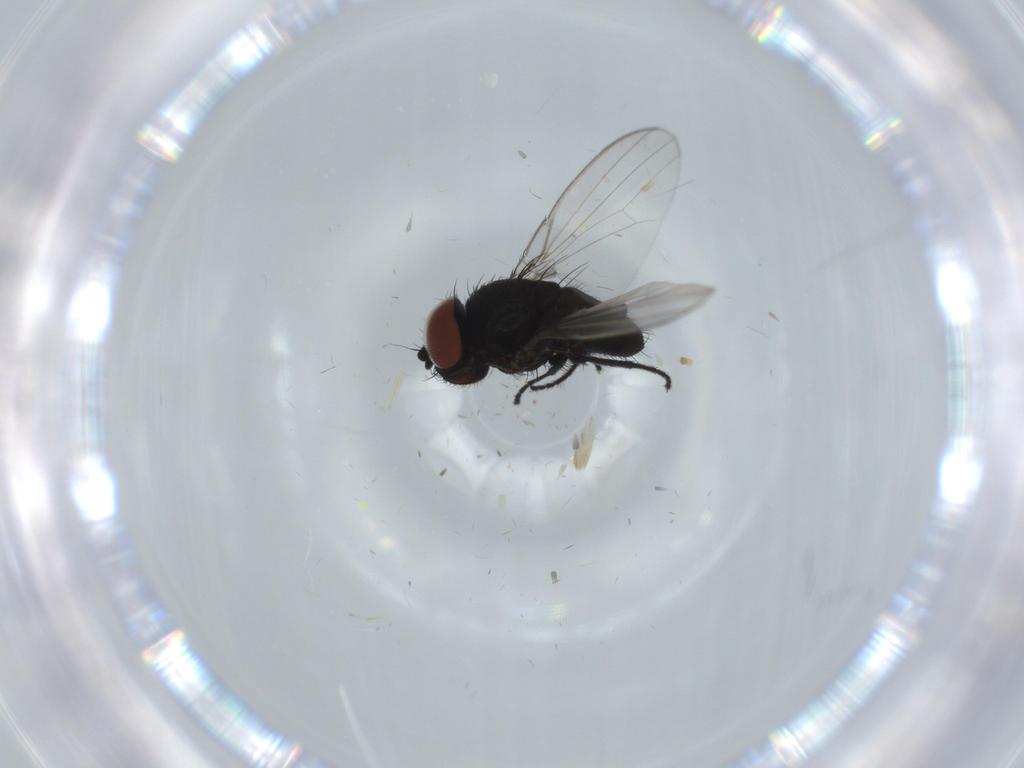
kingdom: Animalia
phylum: Arthropoda
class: Insecta
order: Diptera
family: Milichiidae
